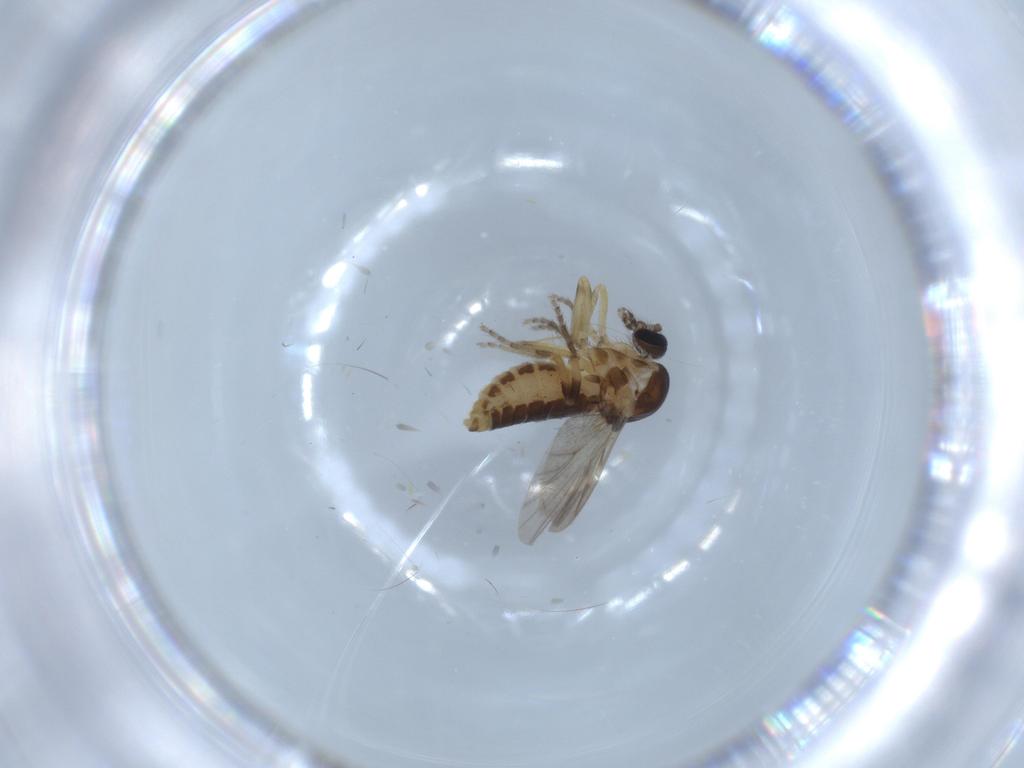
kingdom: Animalia
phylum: Arthropoda
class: Insecta
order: Diptera
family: Ceratopogonidae
